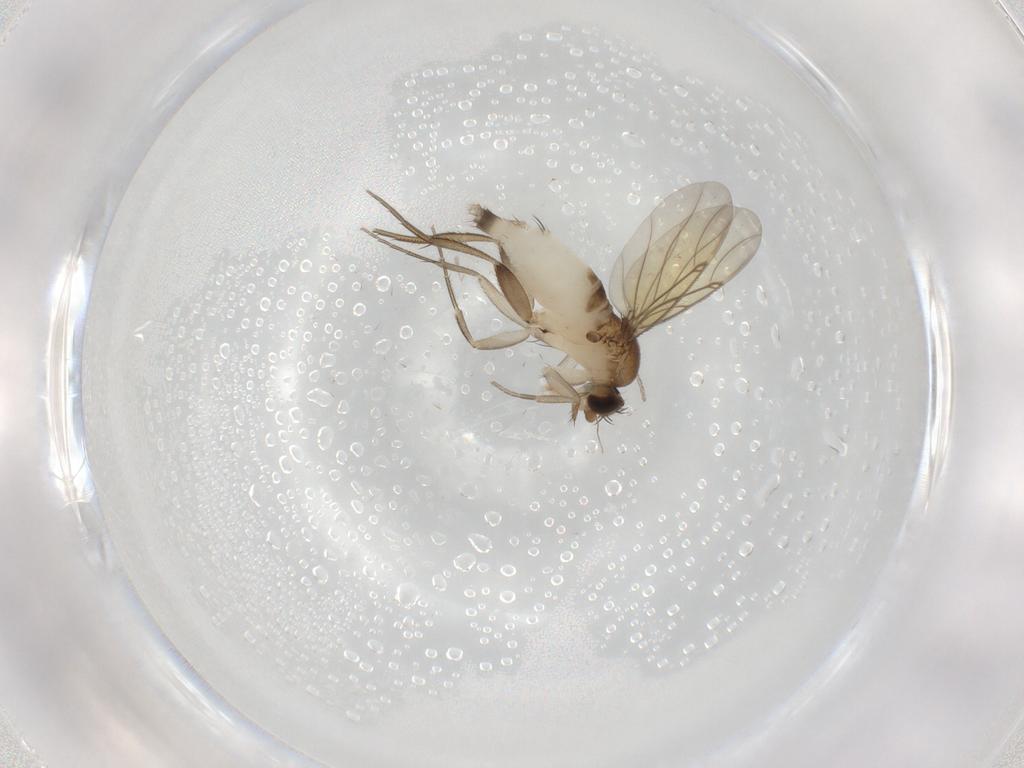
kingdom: Animalia
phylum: Arthropoda
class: Insecta
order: Diptera
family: Phoridae
